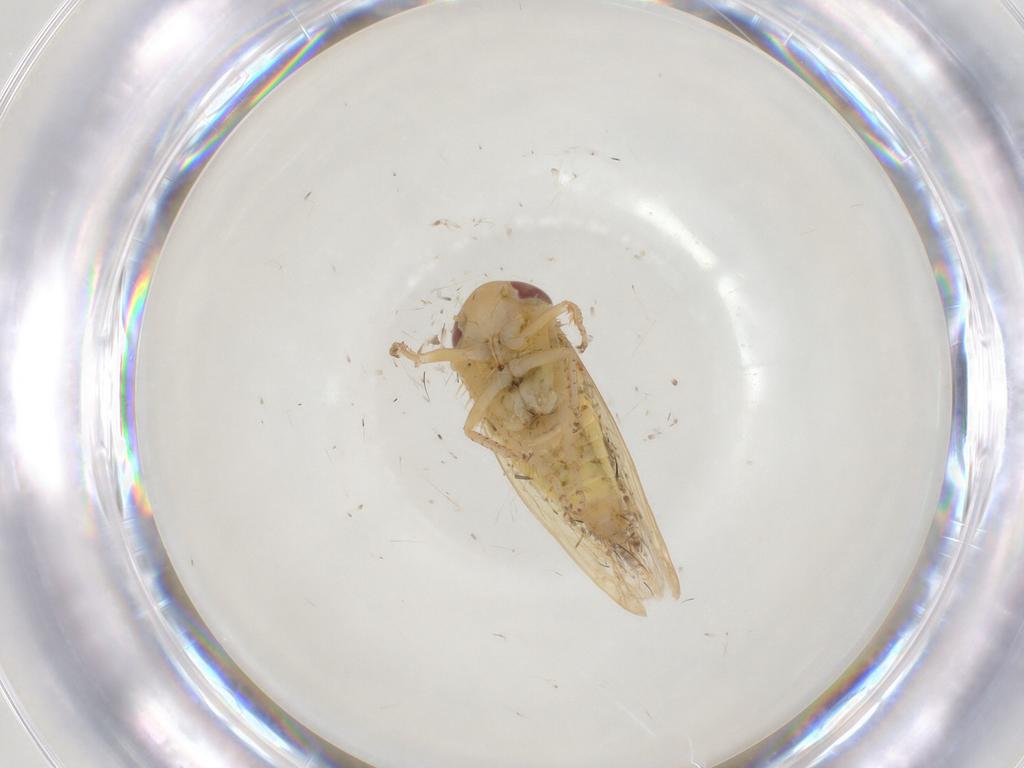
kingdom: Animalia
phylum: Arthropoda
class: Insecta
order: Hemiptera
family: Cicadellidae
